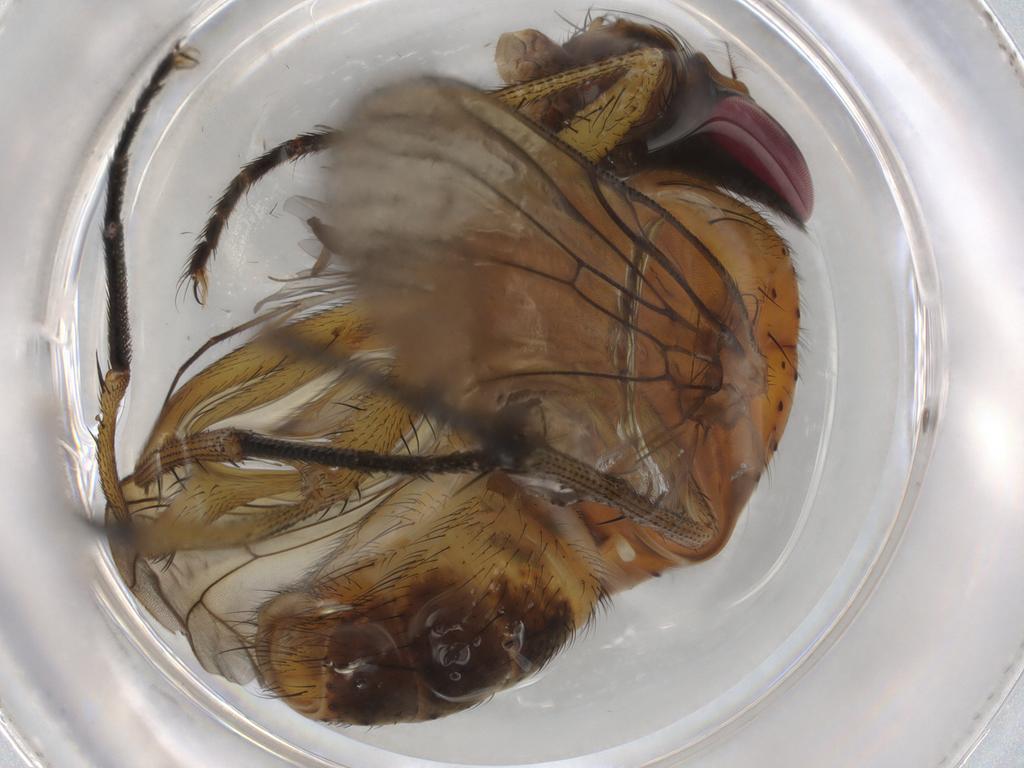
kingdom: Animalia
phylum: Arthropoda
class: Insecta
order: Diptera
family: Muscidae
